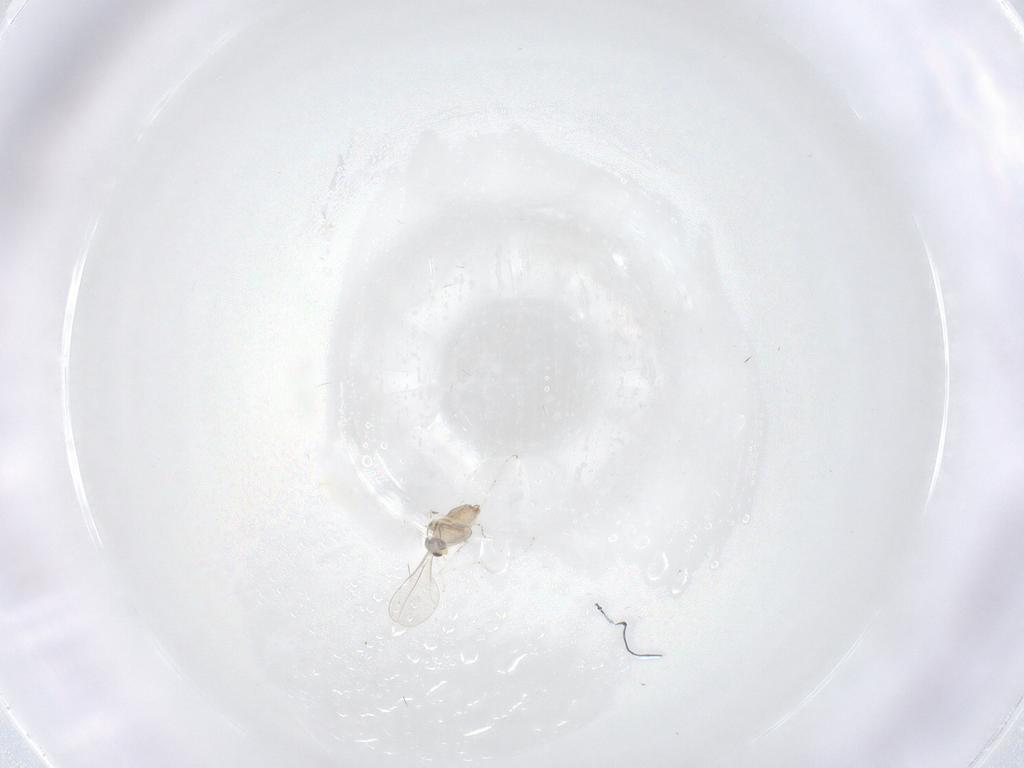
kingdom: Animalia
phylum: Arthropoda
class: Insecta
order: Diptera
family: Cecidomyiidae
